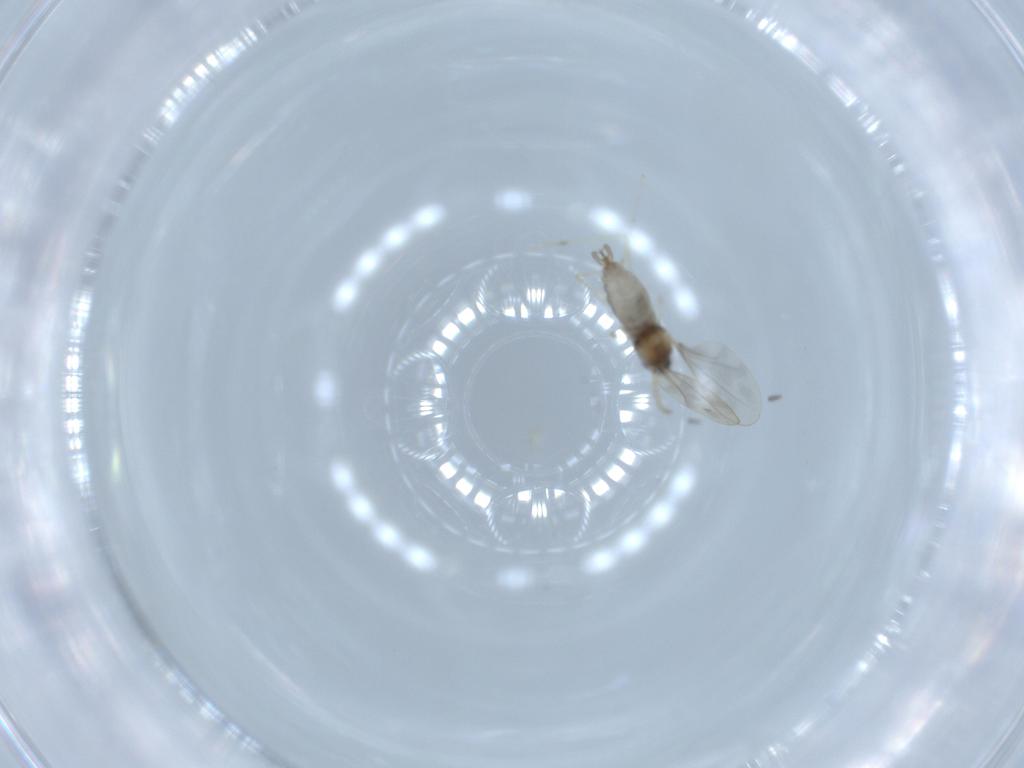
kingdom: Animalia
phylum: Arthropoda
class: Insecta
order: Diptera
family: Cecidomyiidae
